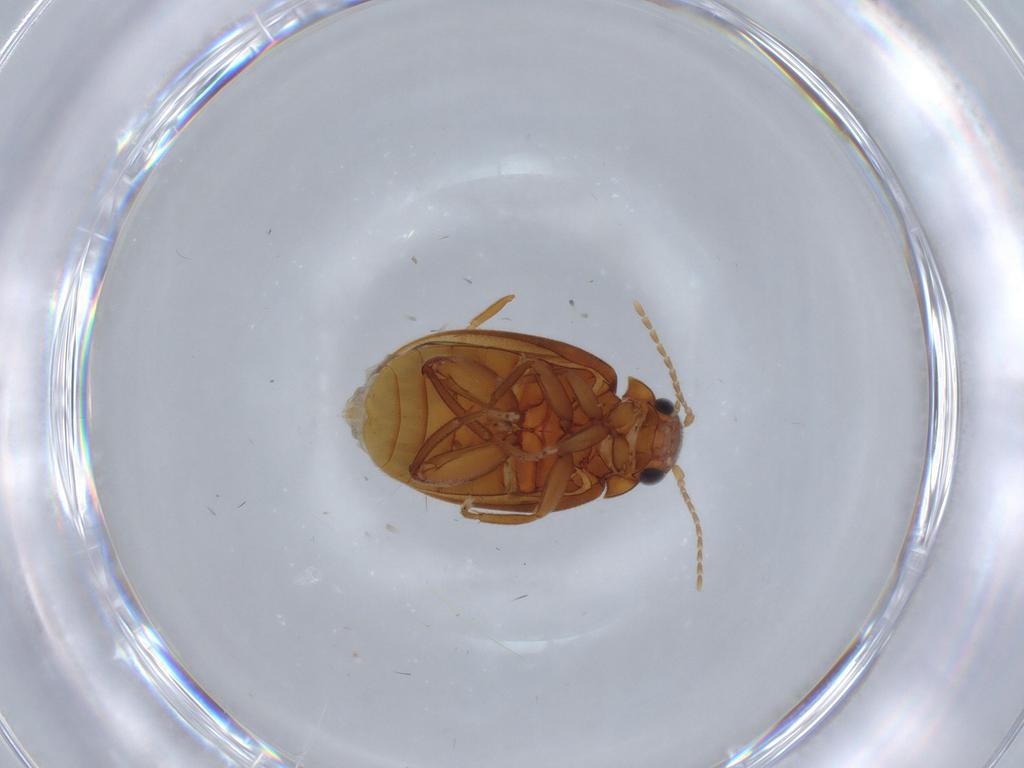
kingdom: Animalia
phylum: Arthropoda
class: Insecta
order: Coleoptera
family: Scirtidae
